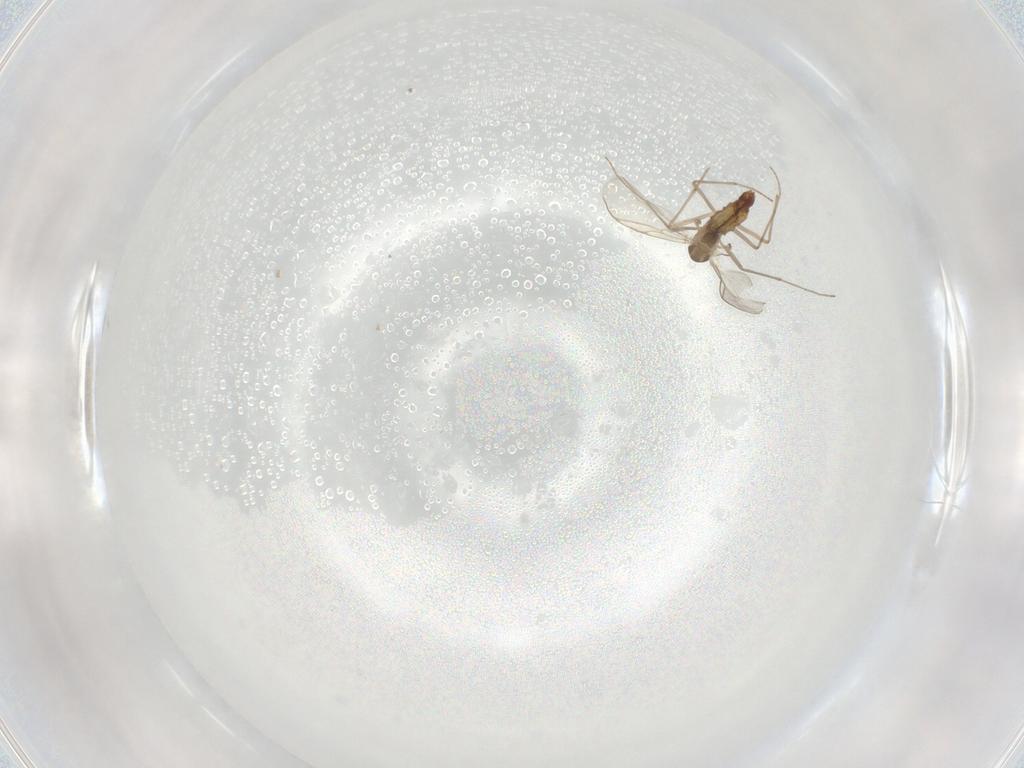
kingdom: Animalia
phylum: Arthropoda
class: Insecta
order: Diptera
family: Chironomidae
